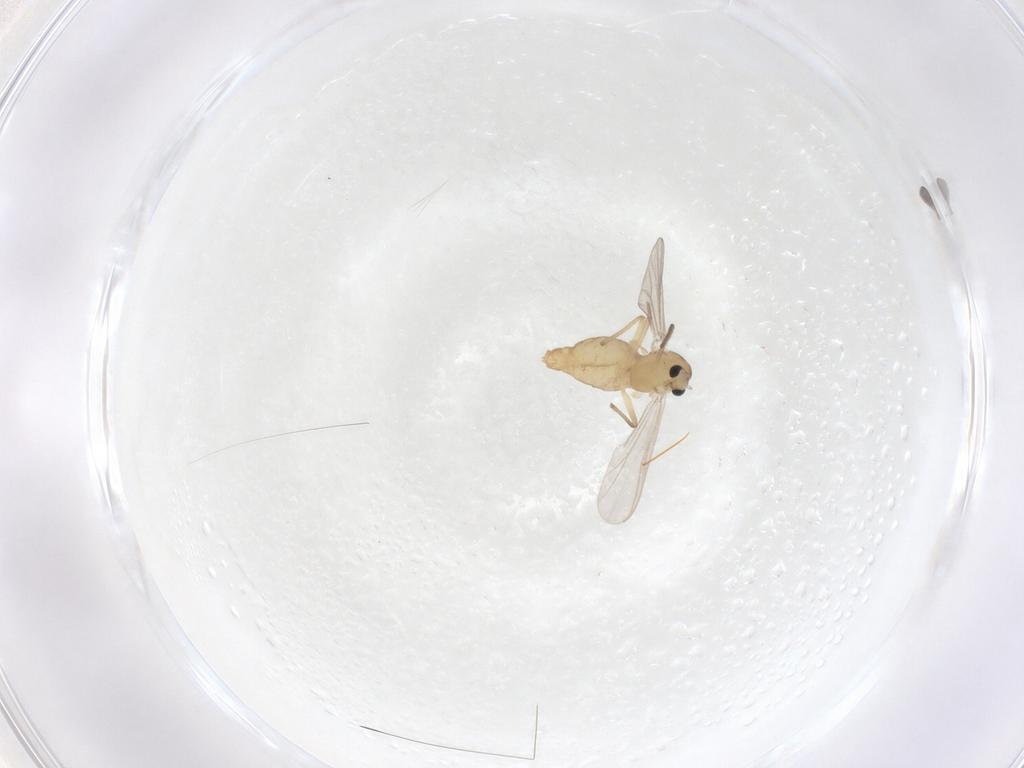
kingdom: Animalia
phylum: Arthropoda
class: Insecta
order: Diptera
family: Chironomidae
